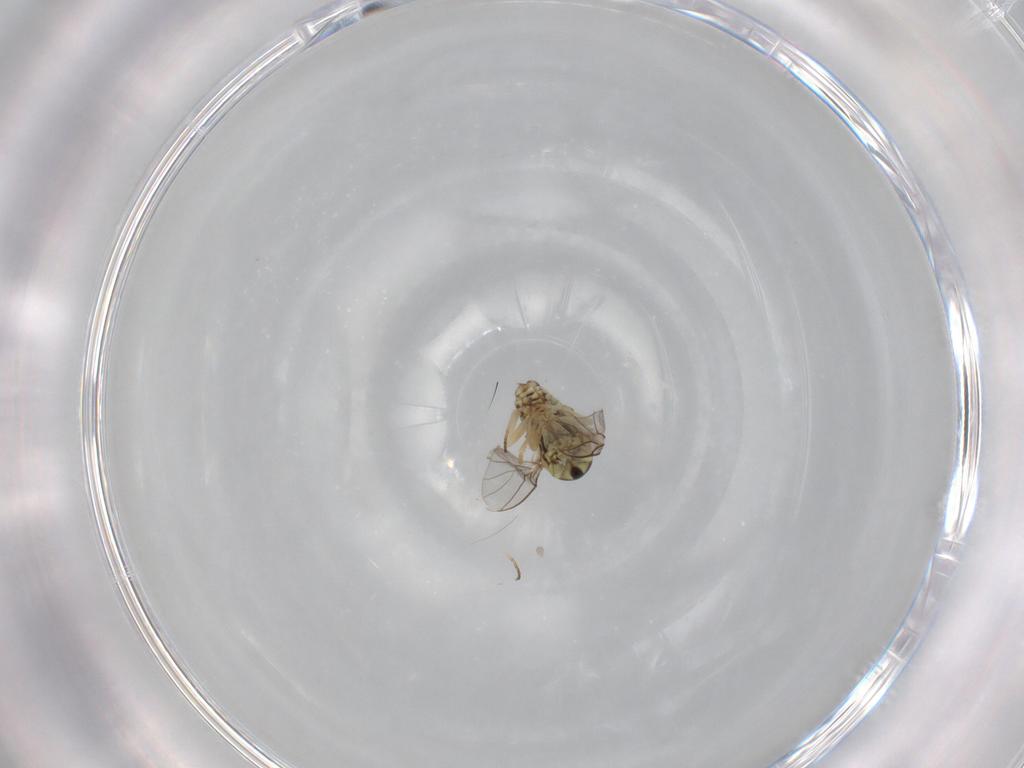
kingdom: Animalia
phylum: Arthropoda
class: Insecta
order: Diptera
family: Bombyliidae
